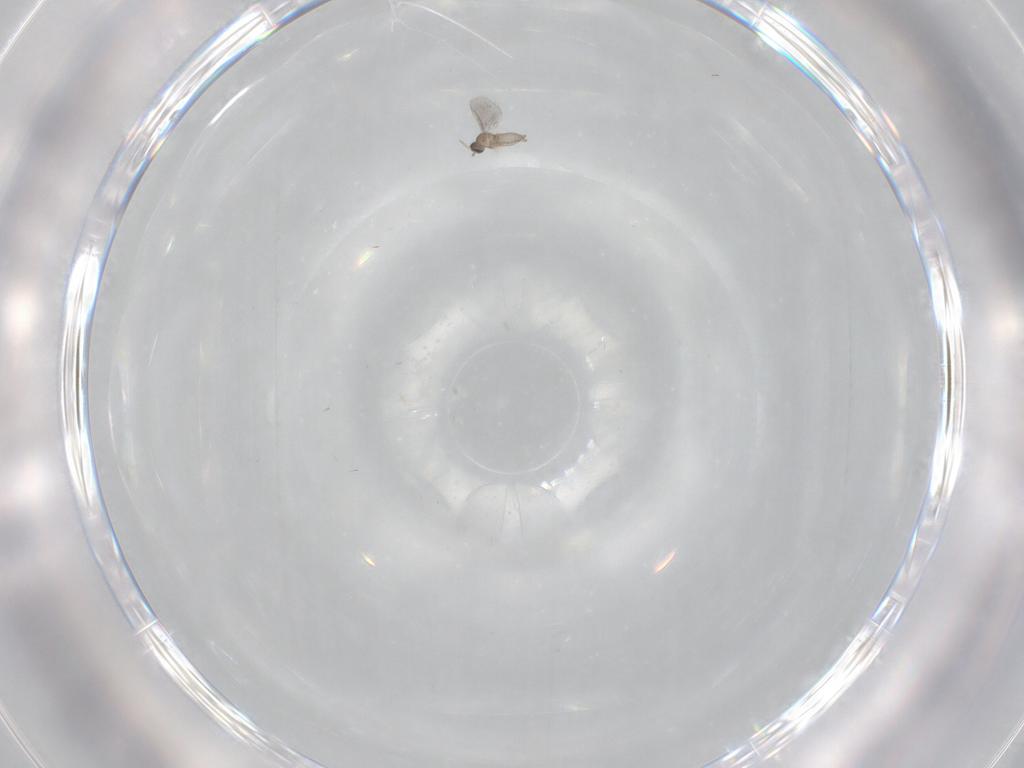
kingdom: Animalia
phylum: Arthropoda
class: Insecta
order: Diptera
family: Cecidomyiidae
